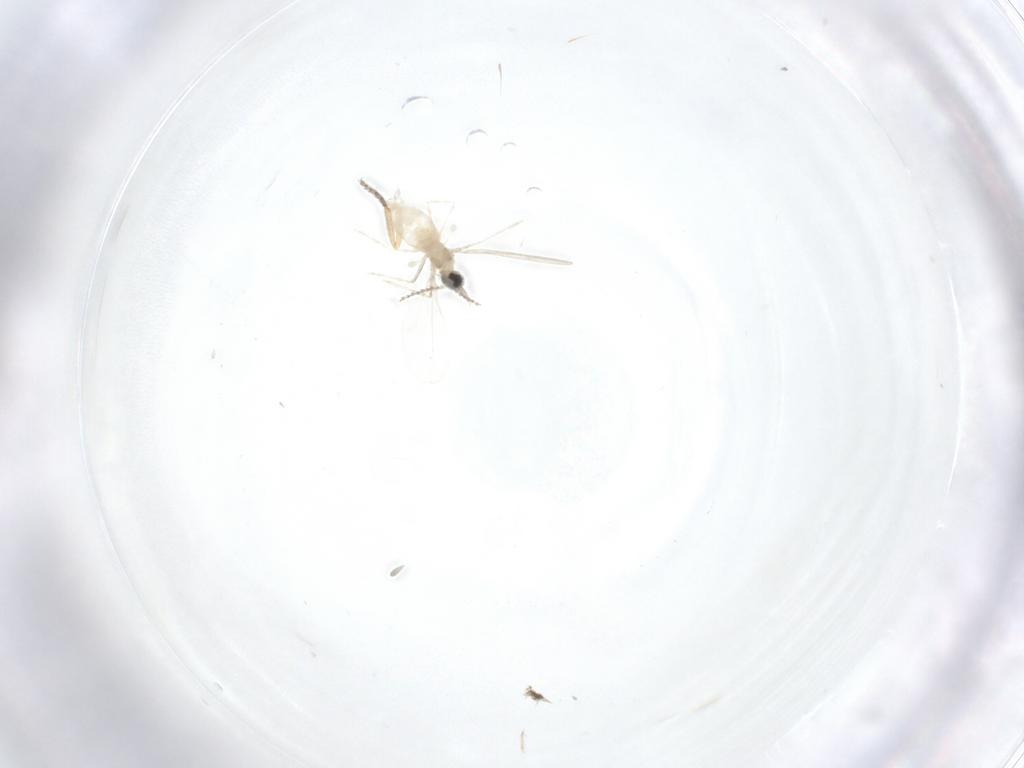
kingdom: Animalia
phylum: Arthropoda
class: Insecta
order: Diptera
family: Ceratopogonidae
